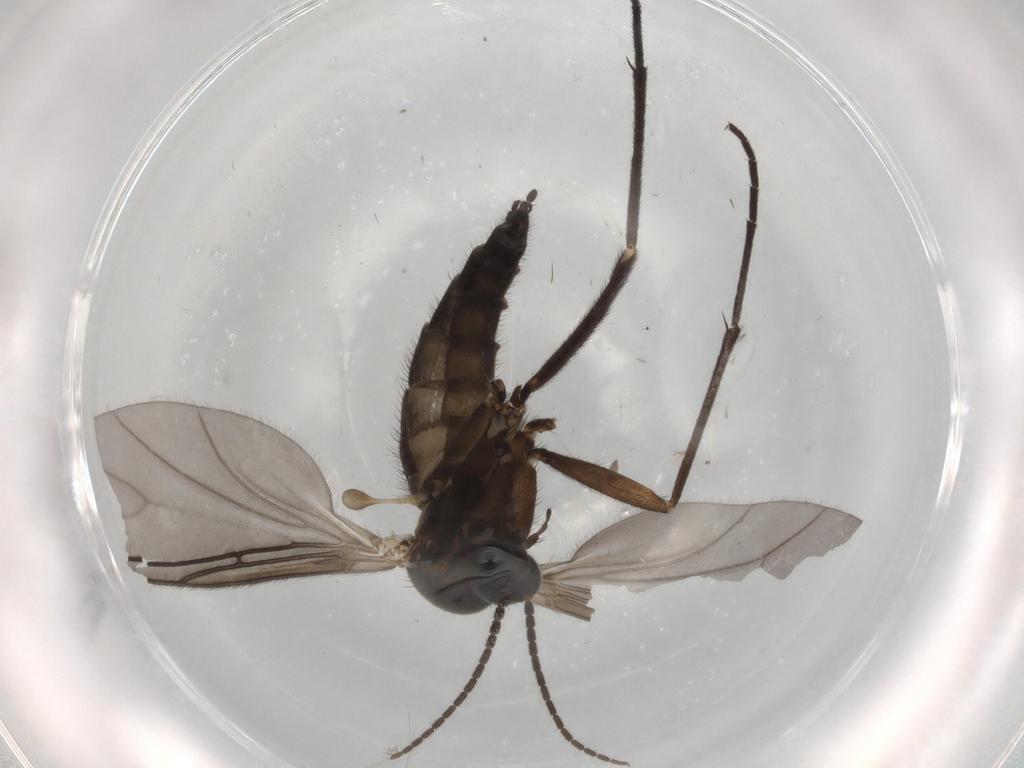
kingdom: Animalia
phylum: Arthropoda
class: Insecta
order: Diptera
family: Sciaridae
